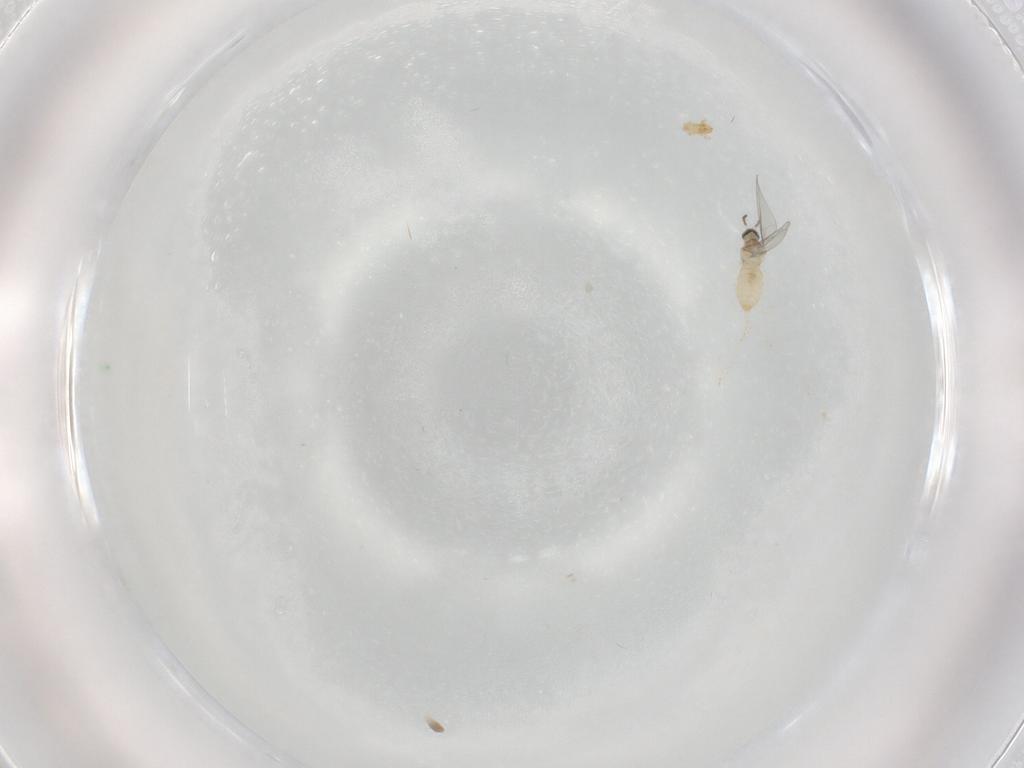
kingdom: Animalia
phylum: Arthropoda
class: Insecta
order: Diptera
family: Cecidomyiidae
